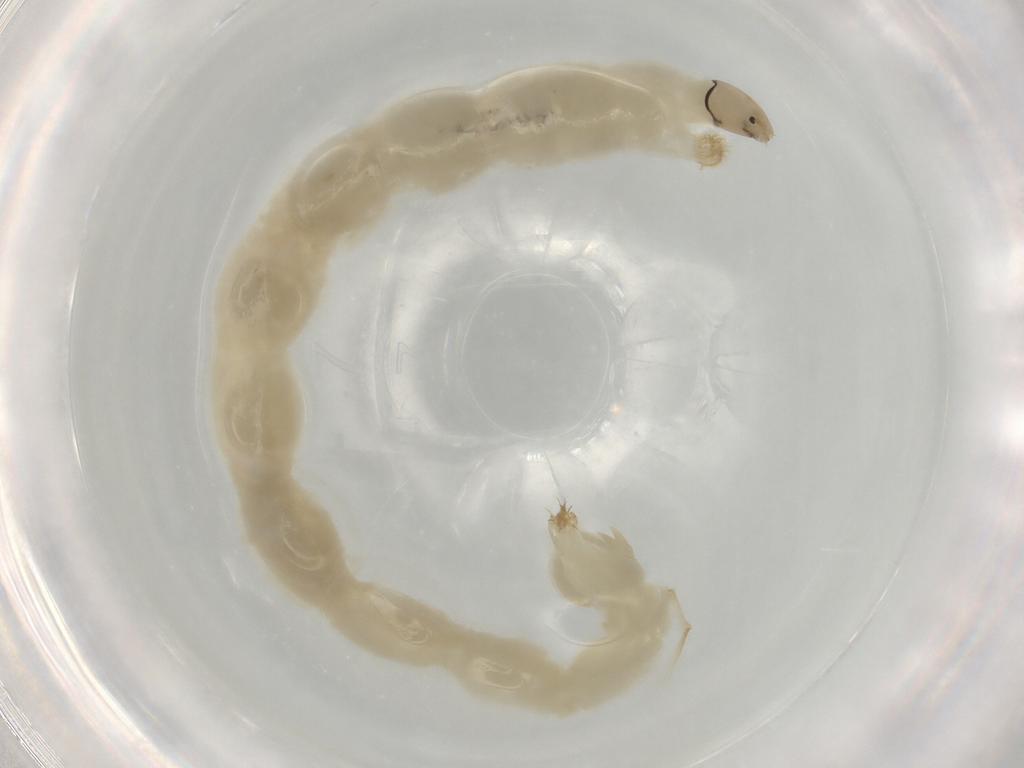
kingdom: Animalia
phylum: Arthropoda
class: Insecta
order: Diptera
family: Chironomidae
